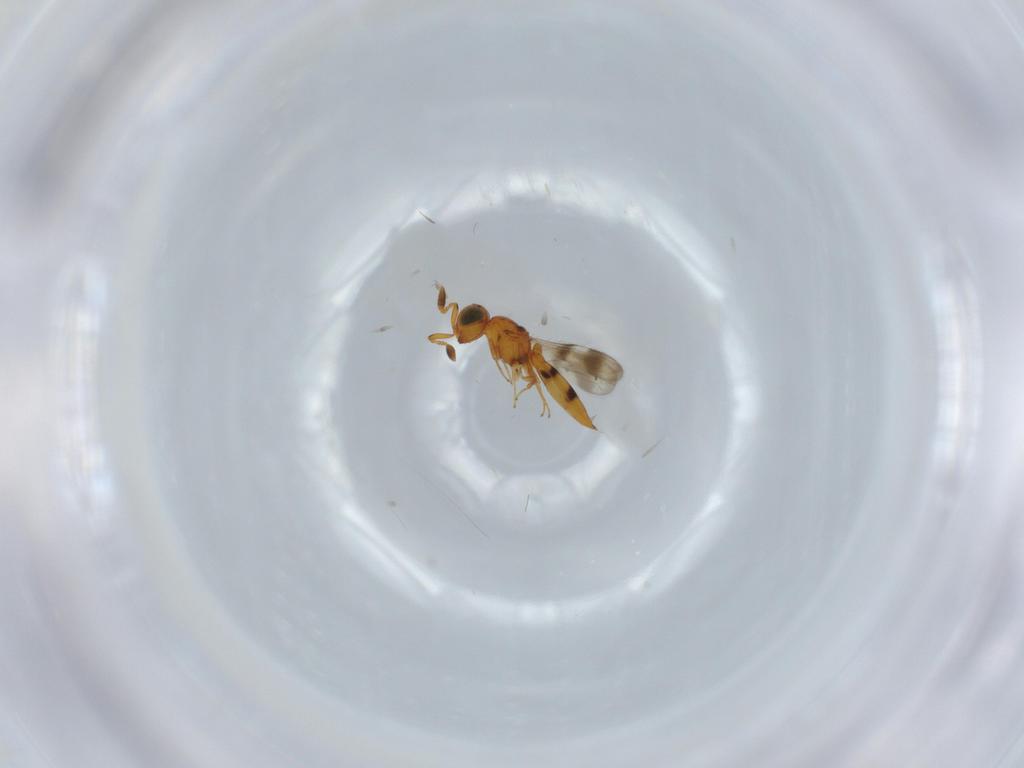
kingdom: Animalia
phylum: Arthropoda
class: Insecta
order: Hymenoptera
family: Scelionidae
